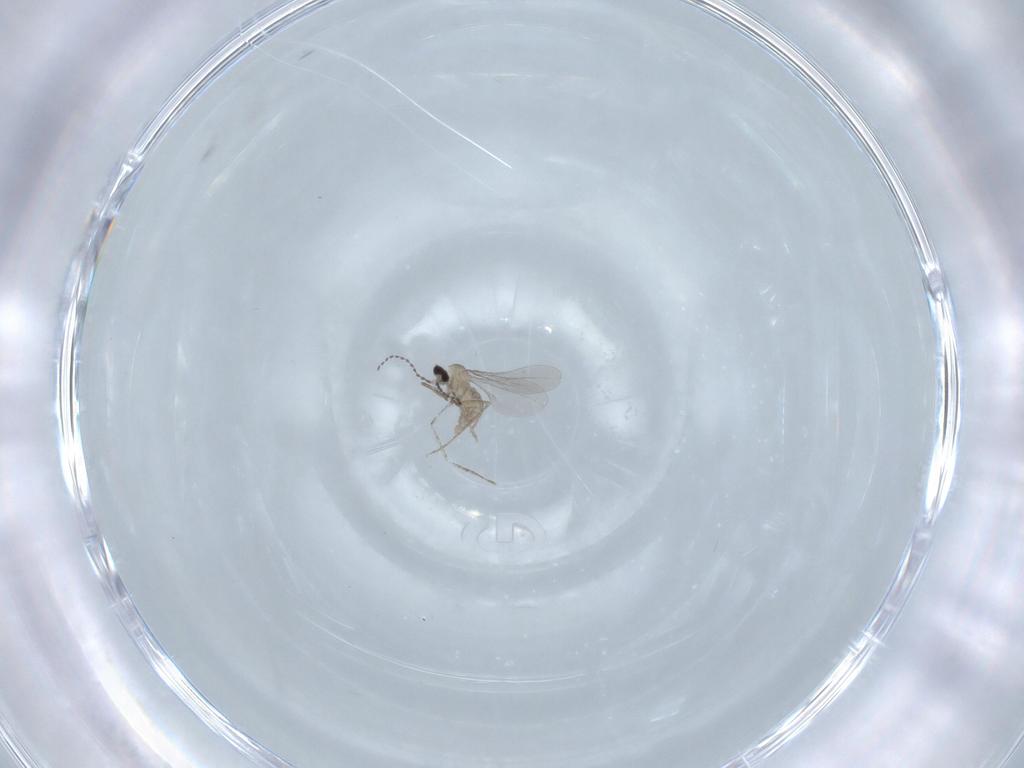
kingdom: Animalia
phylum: Arthropoda
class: Insecta
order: Diptera
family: Cecidomyiidae
